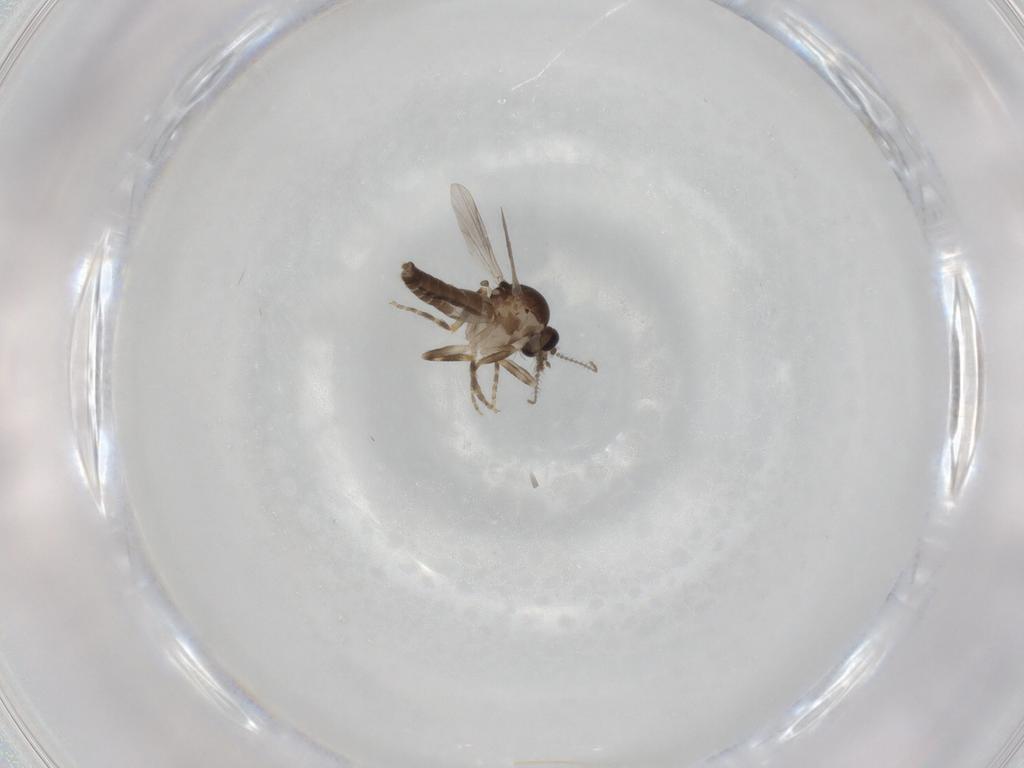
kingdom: Animalia
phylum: Arthropoda
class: Insecta
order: Diptera
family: Ceratopogonidae
